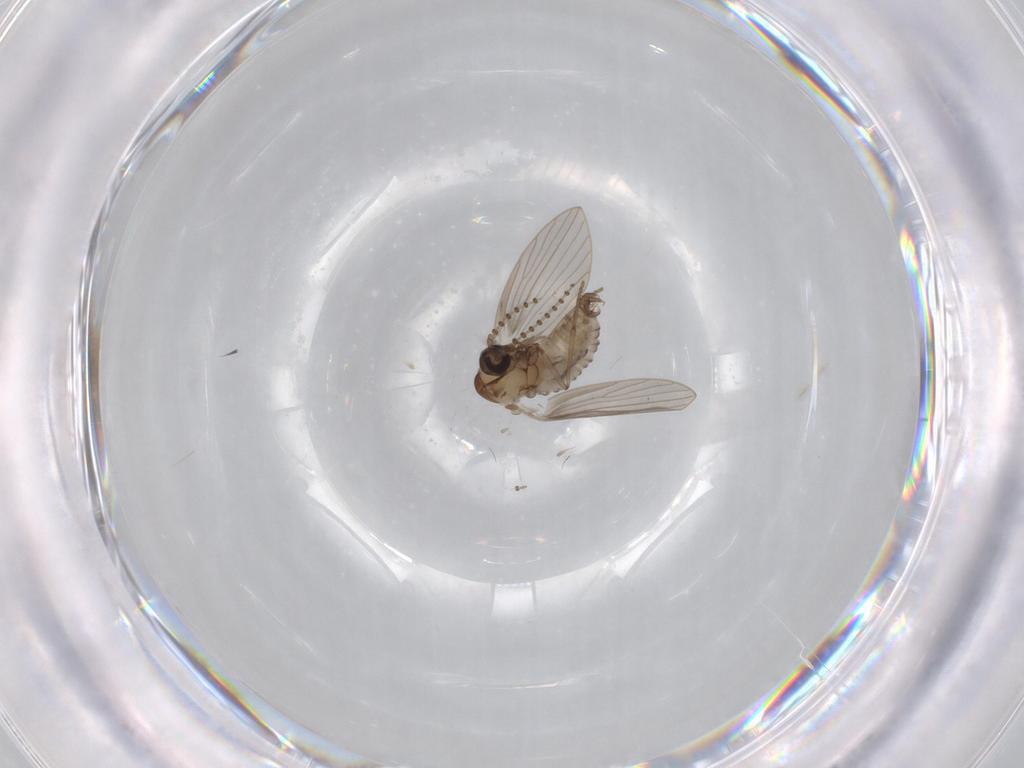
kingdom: Animalia
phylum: Arthropoda
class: Insecta
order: Diptera
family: Psychodidae
